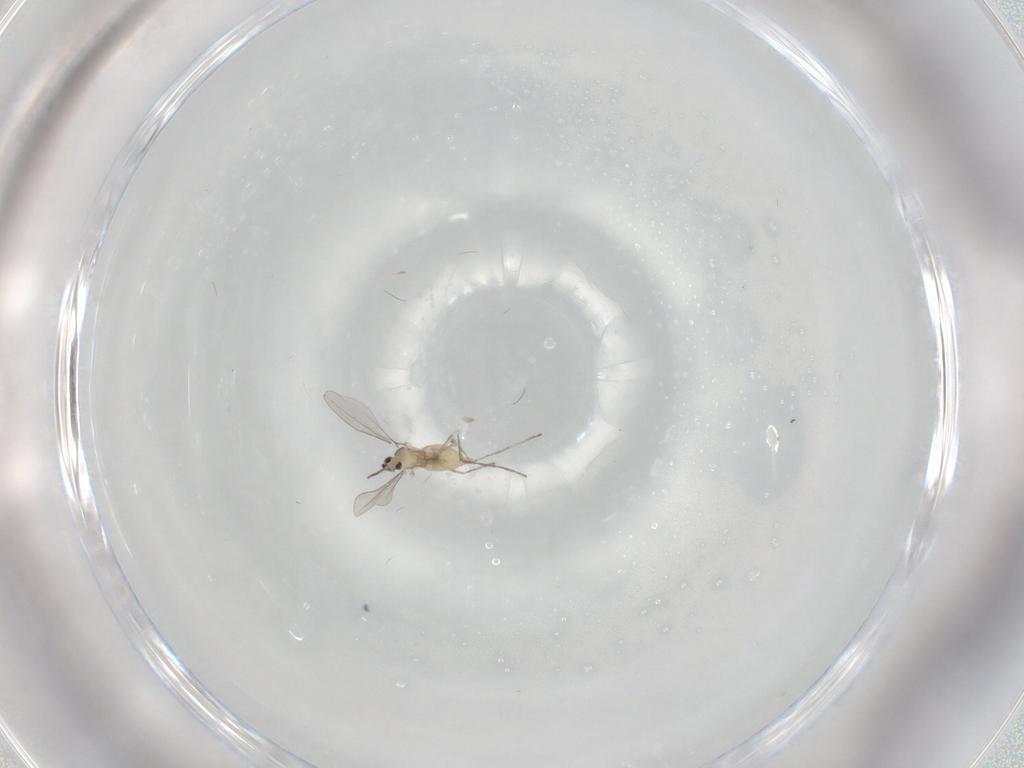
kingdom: Animalia
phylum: Arthropoda
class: Insecta
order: Diptera
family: Cecidomyiidae
